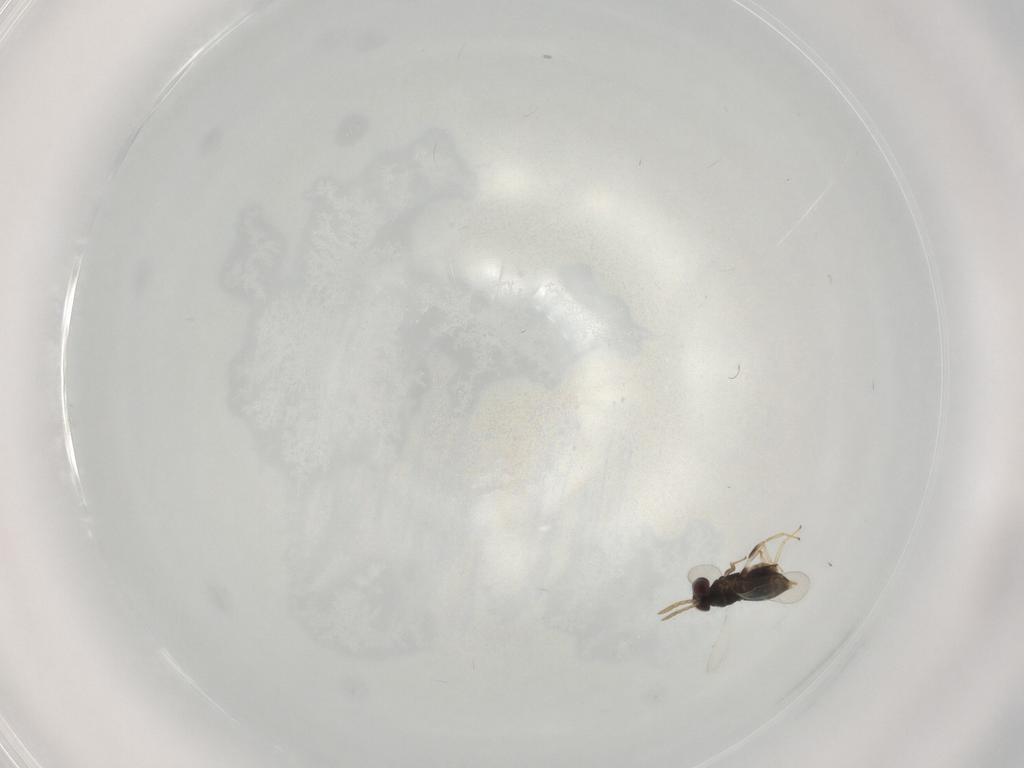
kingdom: Animalia
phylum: Arthropoda
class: Insecta
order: Hymenoptera
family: Aphelinidae
